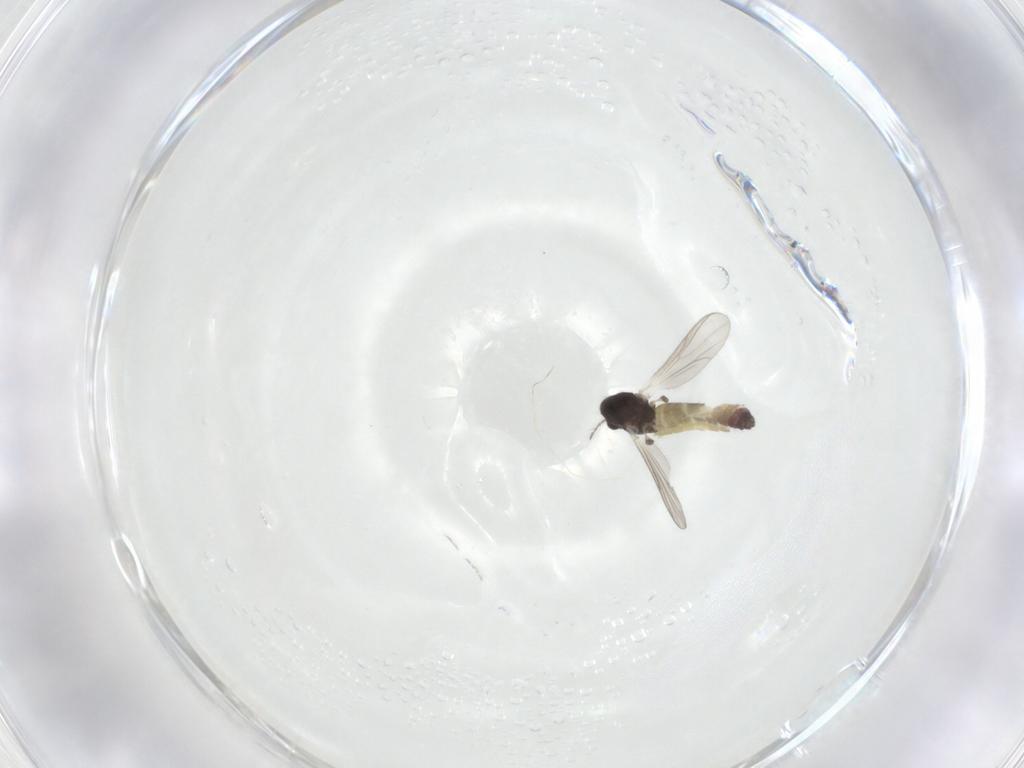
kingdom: Animalia
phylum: Arthropoda
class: Insecta
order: Diptera
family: Chironomidae
